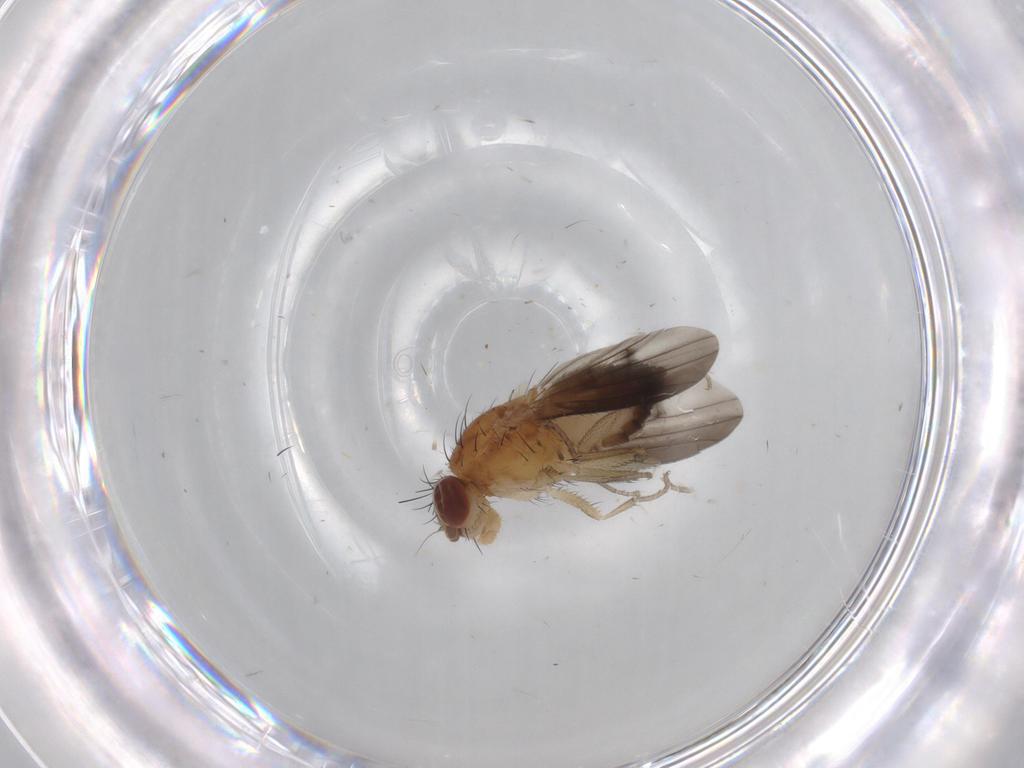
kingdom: Animalia
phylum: Arthropoda
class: Insecta
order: Diptera
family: Heleomyzidae
